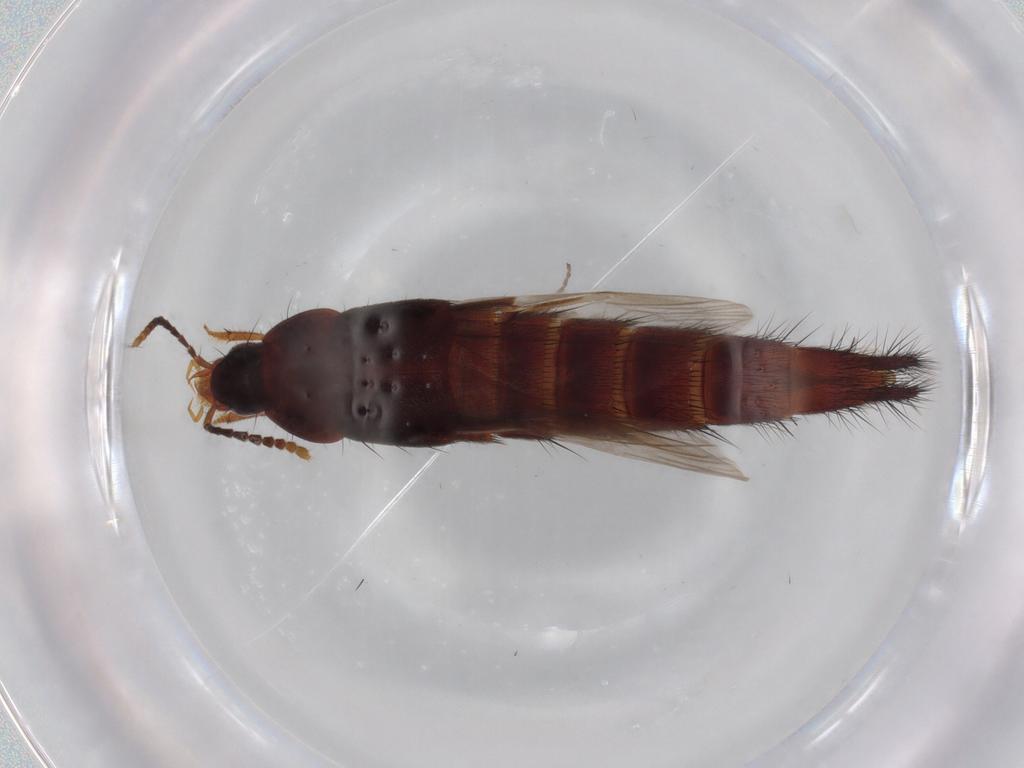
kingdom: Animalia
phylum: Arthropoda
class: Insecta
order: Coleoptera
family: Staphylinidae
